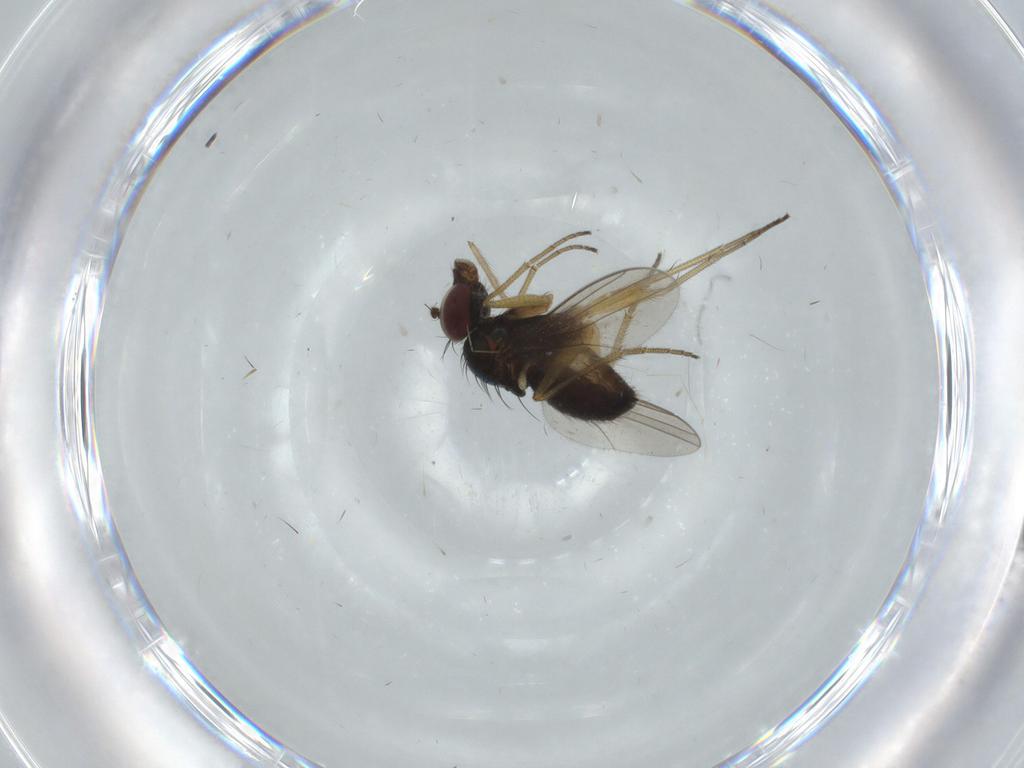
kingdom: Animalia
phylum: Arthropoda
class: Insecta
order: Diptera
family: Dolichopodidae
